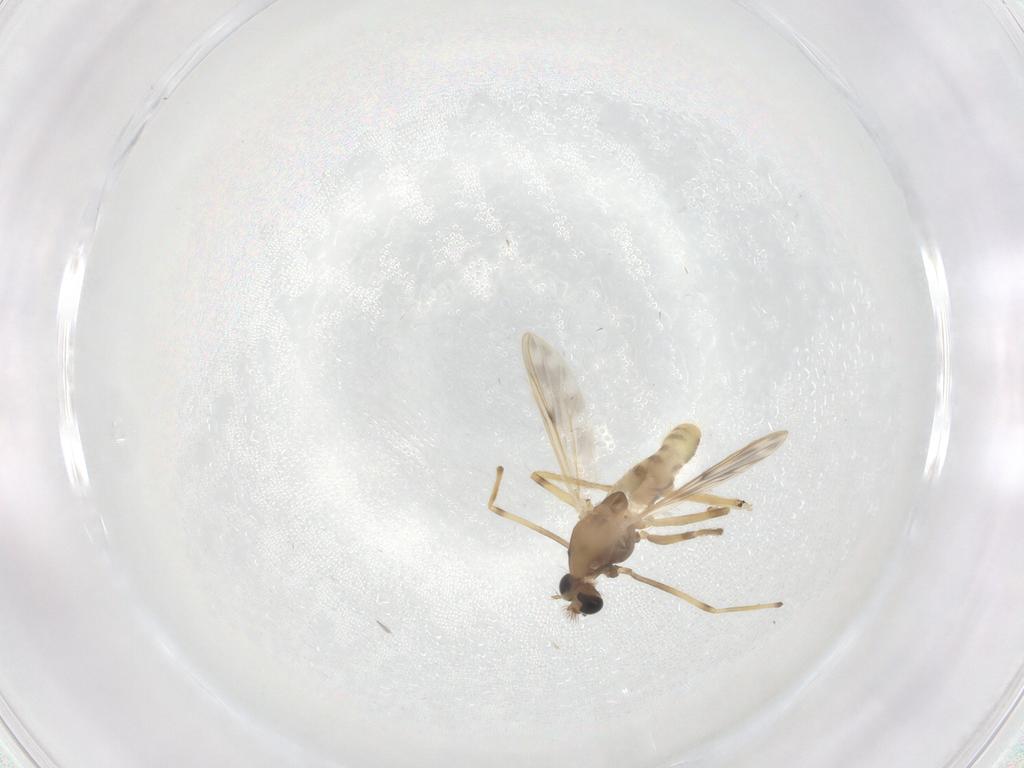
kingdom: Animalia
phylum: Arthropoda
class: Insecta
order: Diptera
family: Chironomidae
